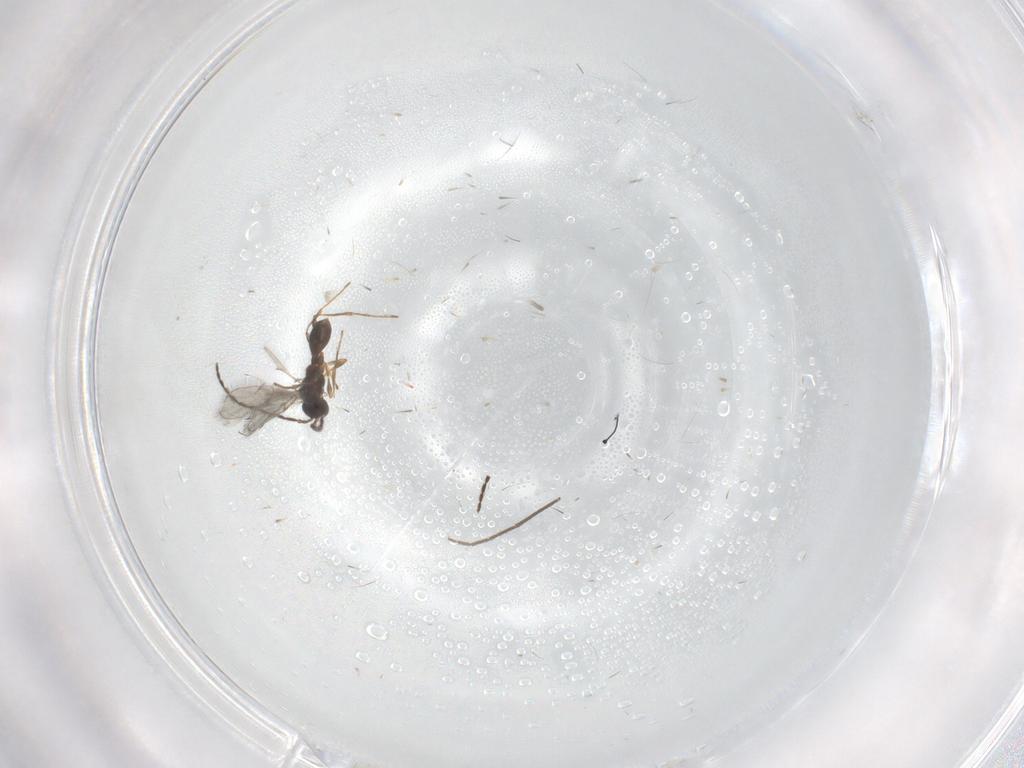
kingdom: Animalia
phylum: Arthropoda
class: Insecta
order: Hymenoptera
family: Diapriidae
